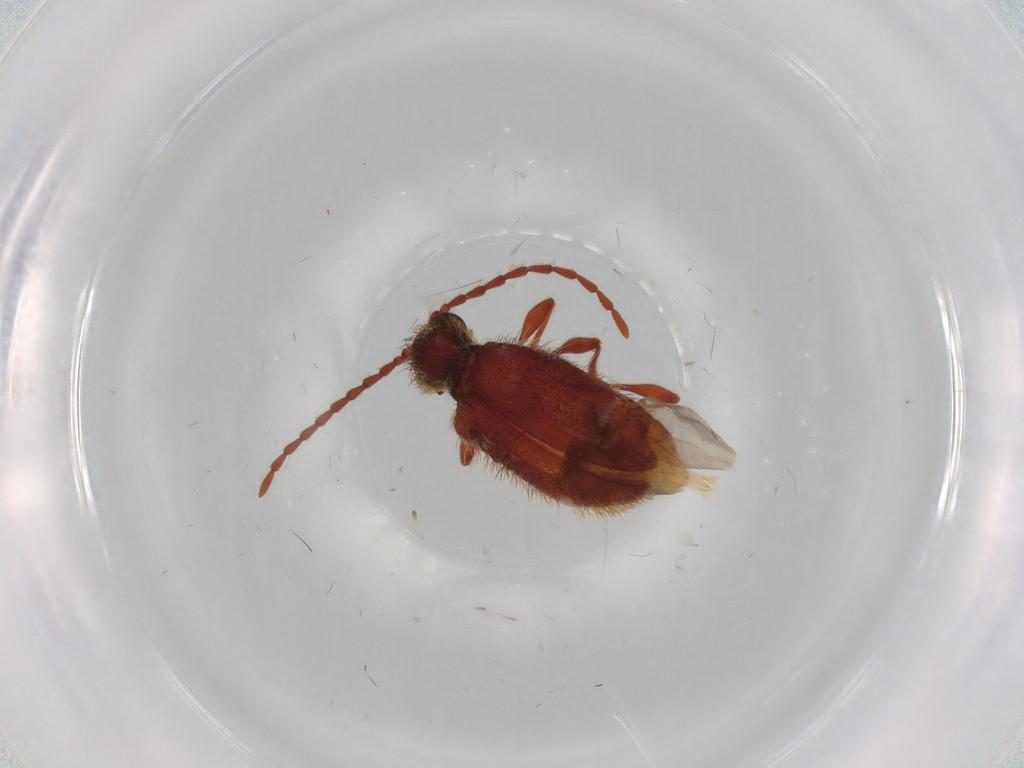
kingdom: Animalia
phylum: Arthropoda
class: Insecta
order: Coleoptera
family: Ptinidae
